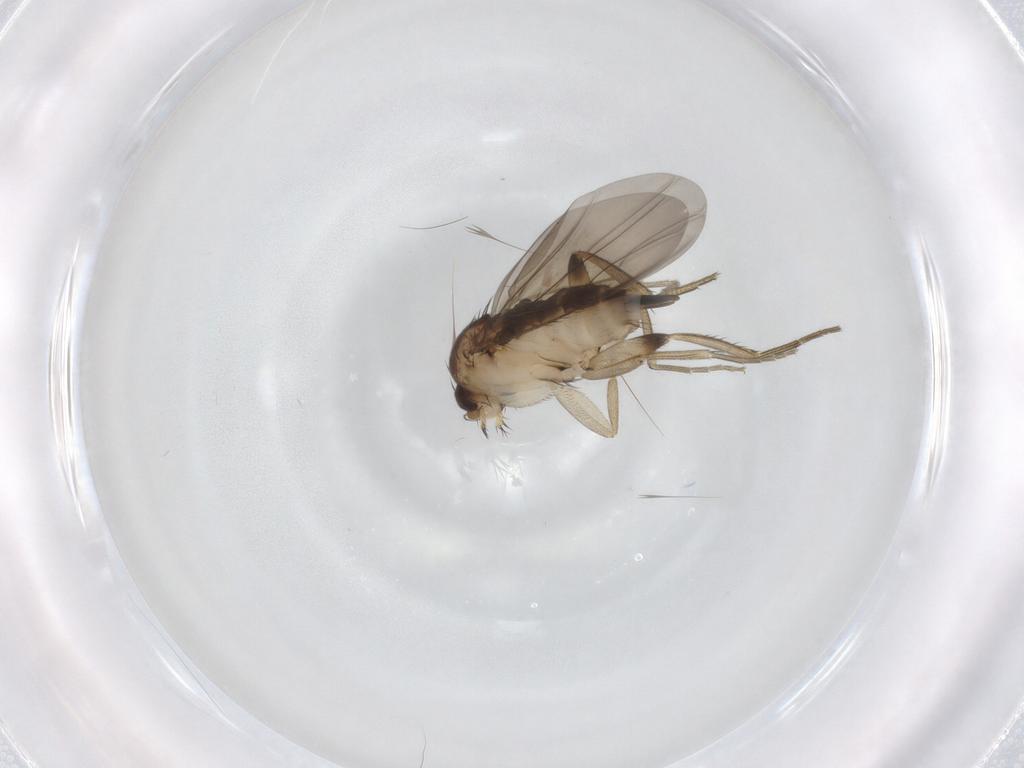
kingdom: Animalia
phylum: Arthropoda
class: Insecta
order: Diptera
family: Phoridae
